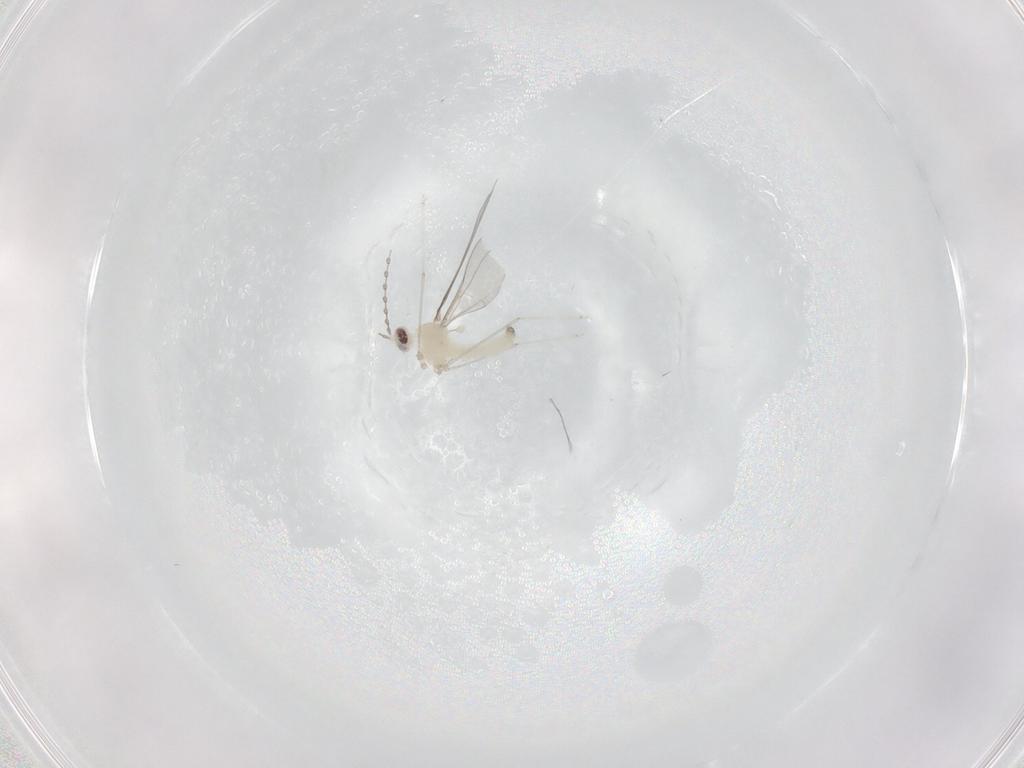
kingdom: Animalia
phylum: Arthropoda
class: Insecta
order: Diptera
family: Cecidomyiidae
